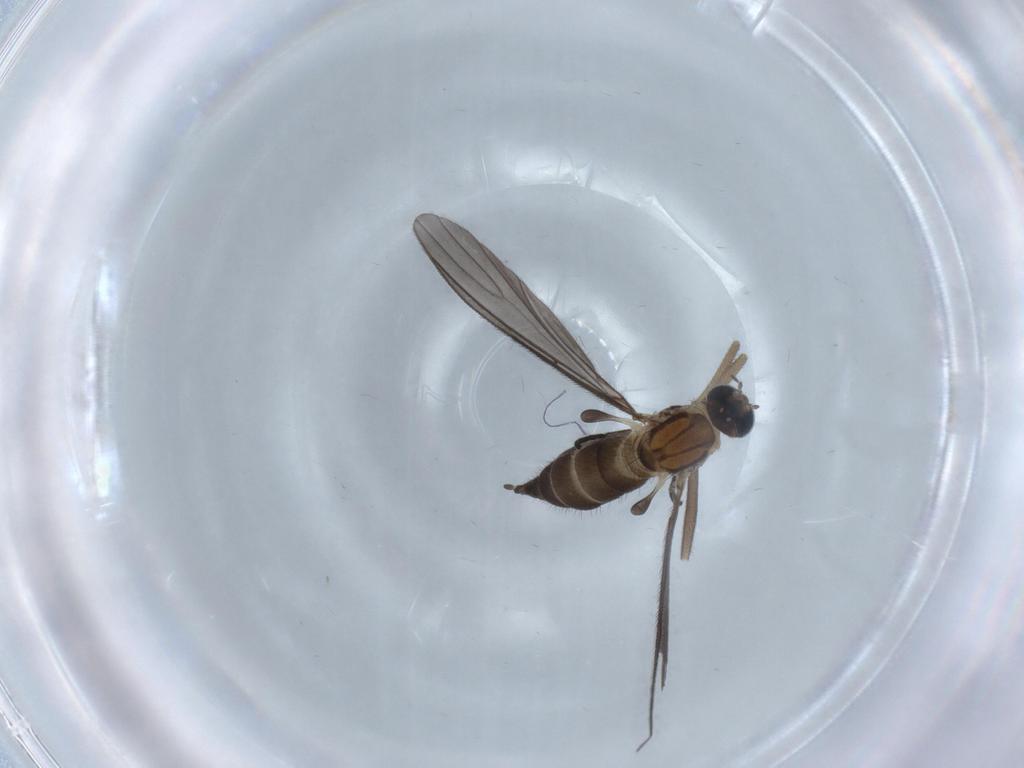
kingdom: Animalia
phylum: Arthropoda
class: Insecta
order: Diptera
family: Sciaridae
